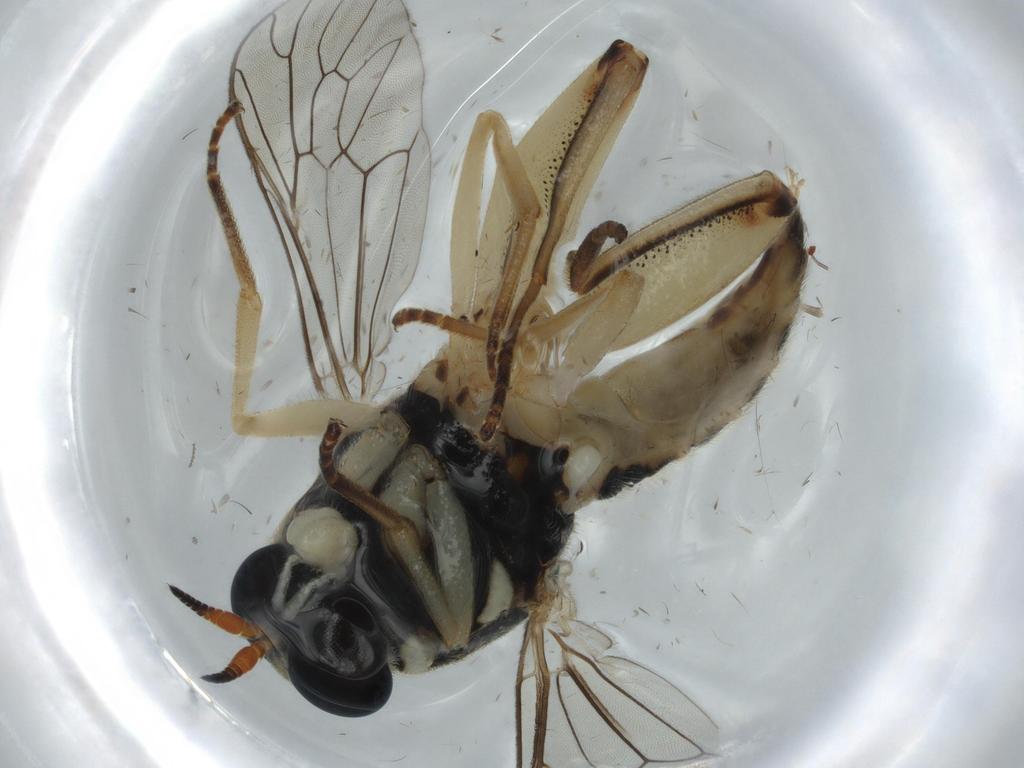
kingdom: Animalia
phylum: Arthropoda
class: Insecta
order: Diptera
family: Xylomyidae
